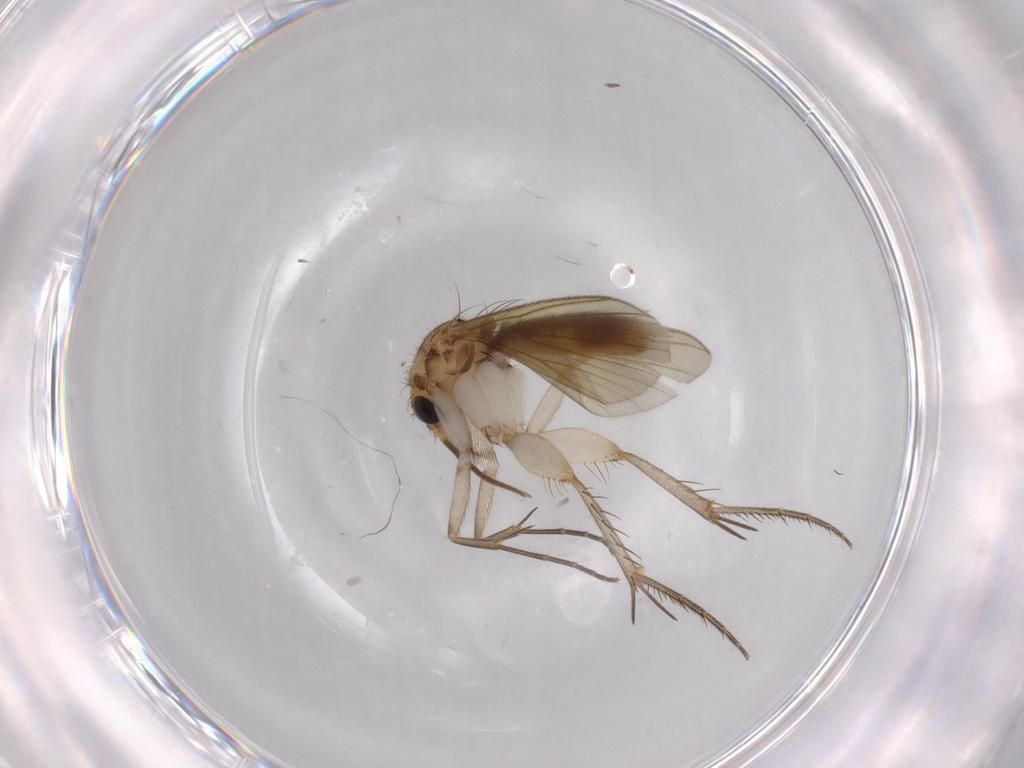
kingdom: Animalia
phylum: Arthropoda
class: Insecta
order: Diptera
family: Mycetophilidae
